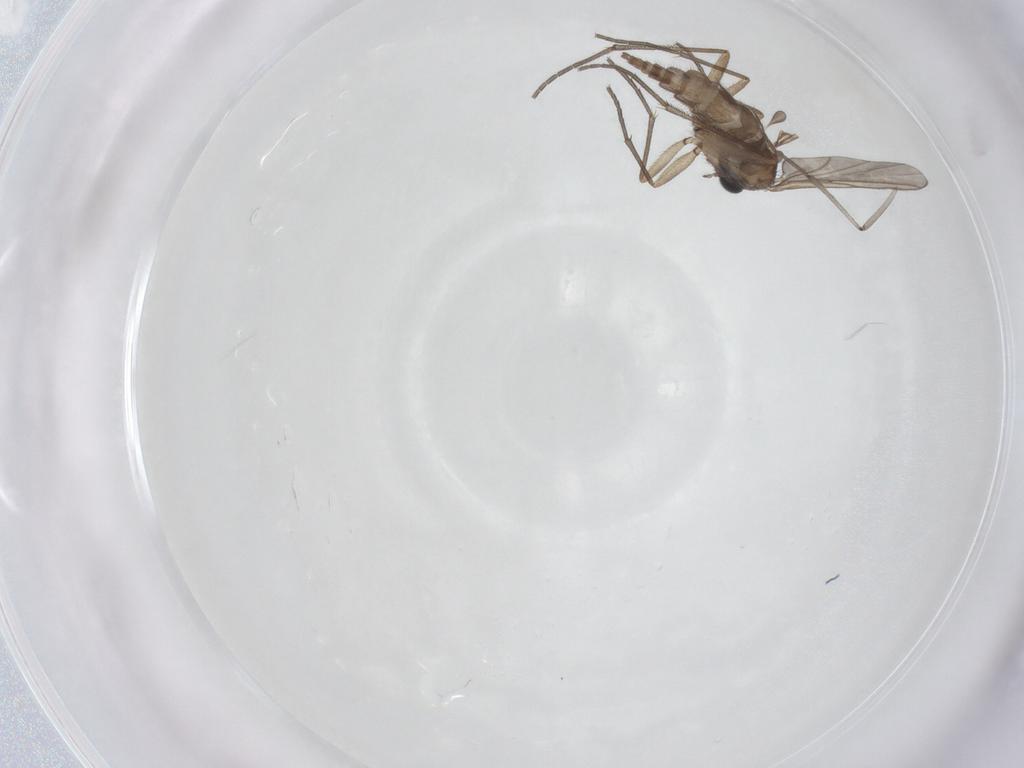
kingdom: Animalia
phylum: Arthropoda
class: Insecta
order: Diptera
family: Sciaridae
